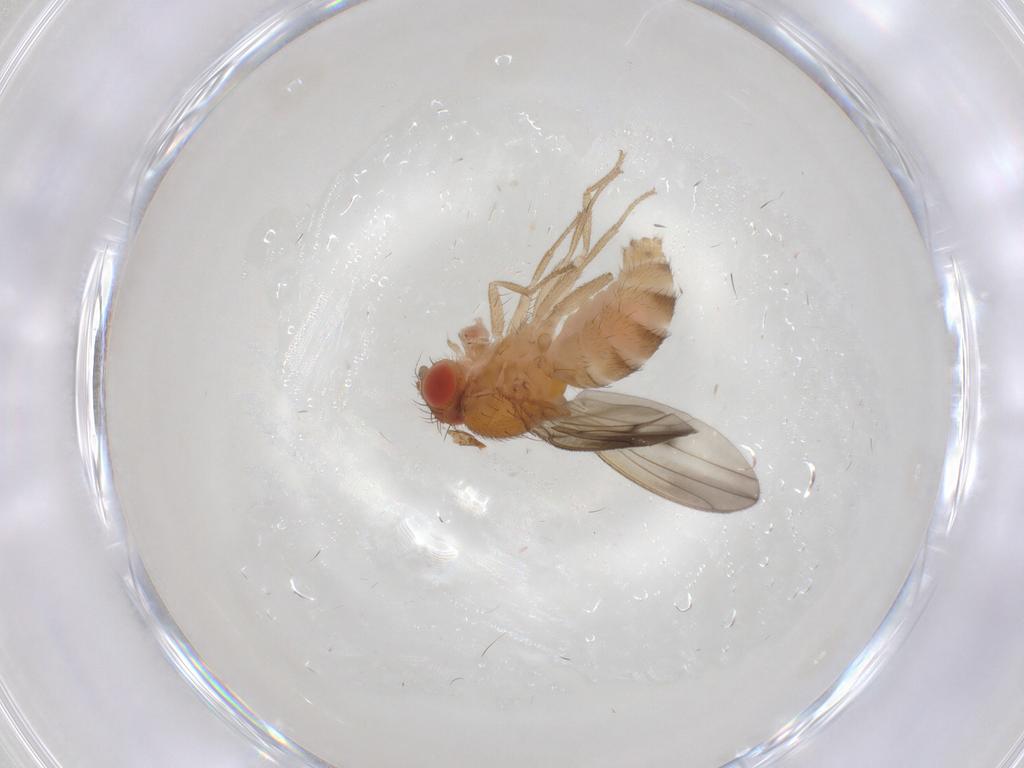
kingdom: Animalia
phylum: Arthropoda
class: Insecta
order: Diptera
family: Drosophilidae
